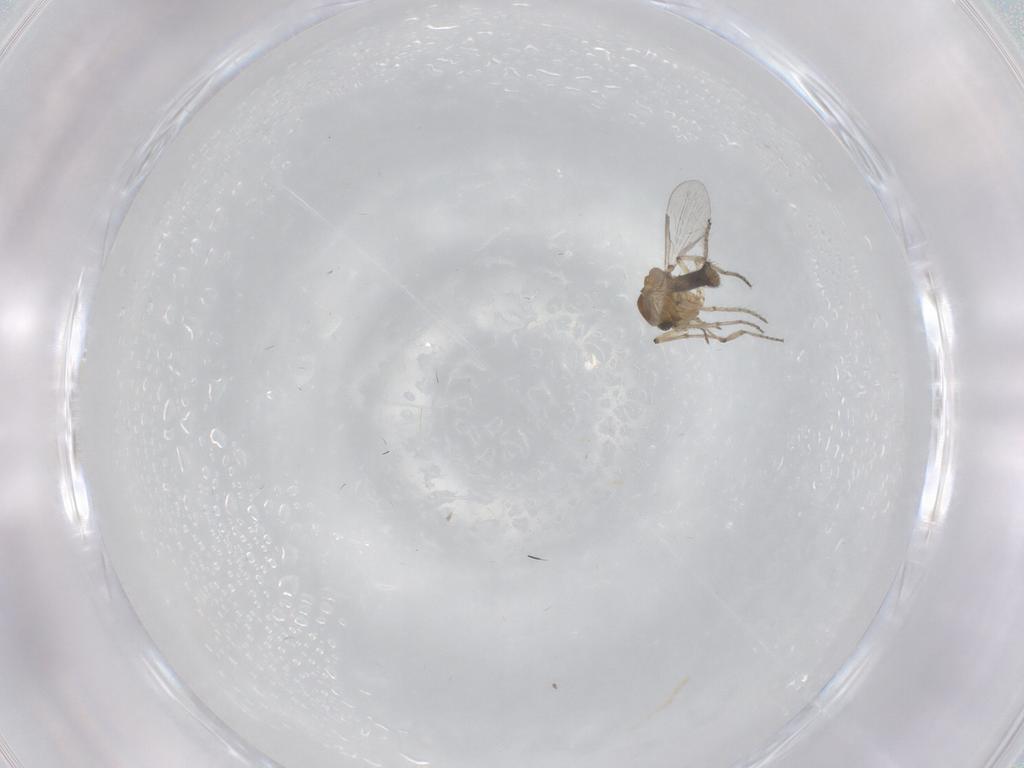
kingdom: Animalia
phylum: Arthropoda
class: Insecta
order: Diptera
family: Ceratopogonidae
